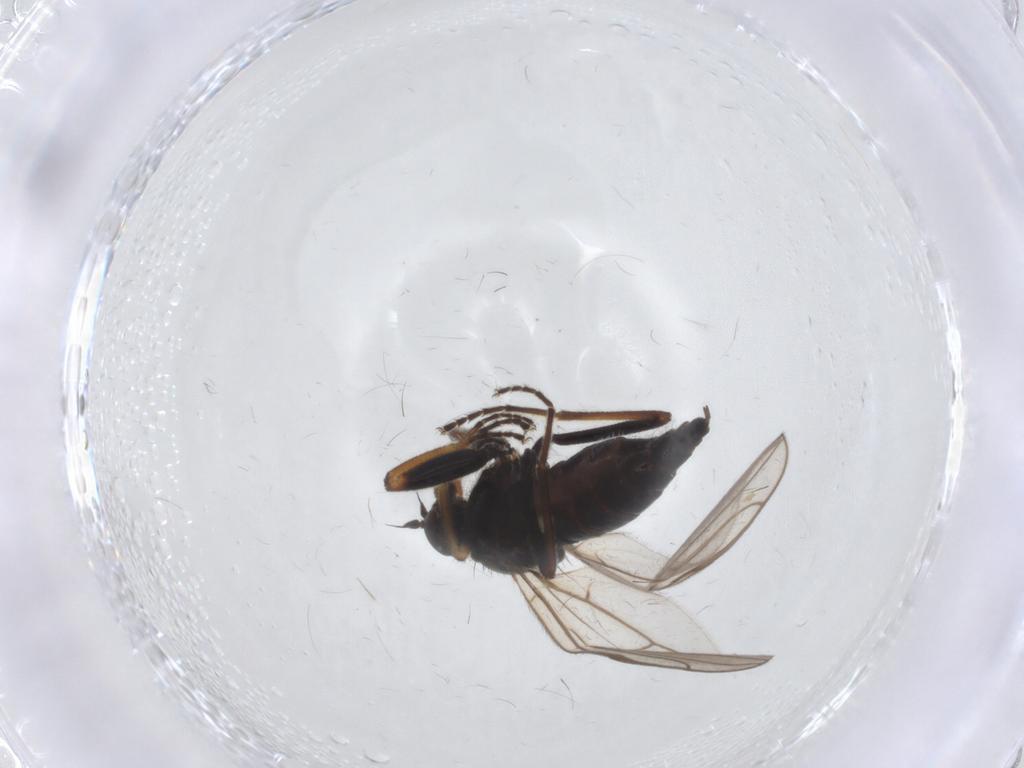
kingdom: Animalia
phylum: Arthropoda
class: Insecta
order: Diptera
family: Hybotidae
